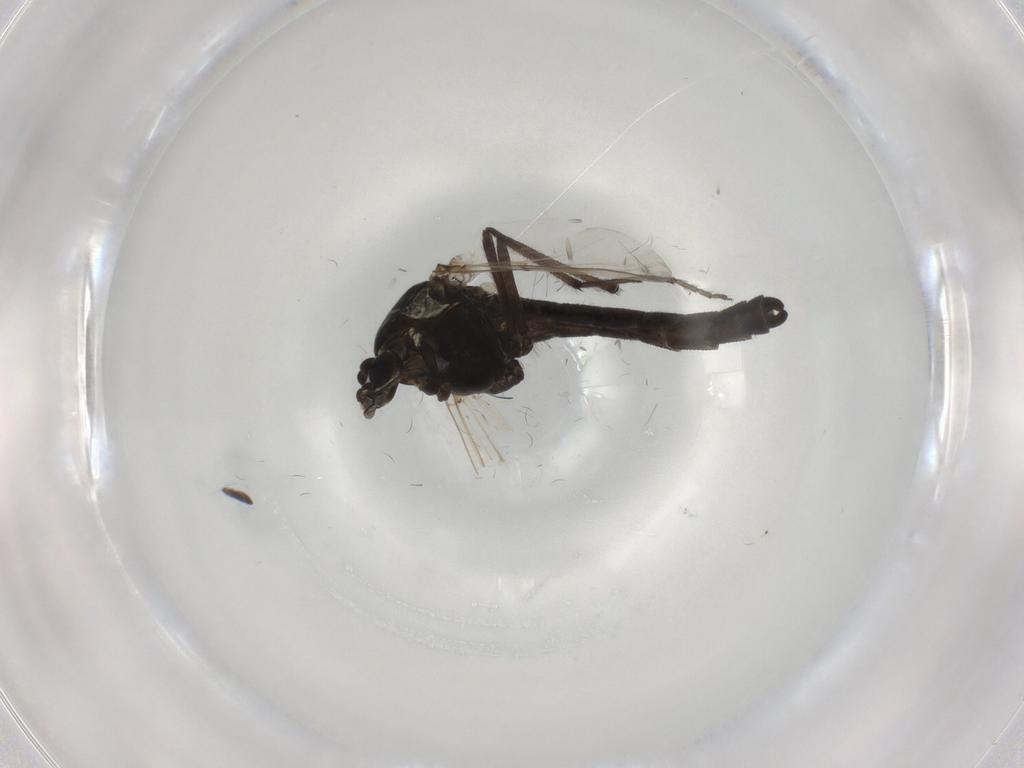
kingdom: Animalia
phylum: Arthropoda
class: Insecta
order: Diptera
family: Chironomidae
